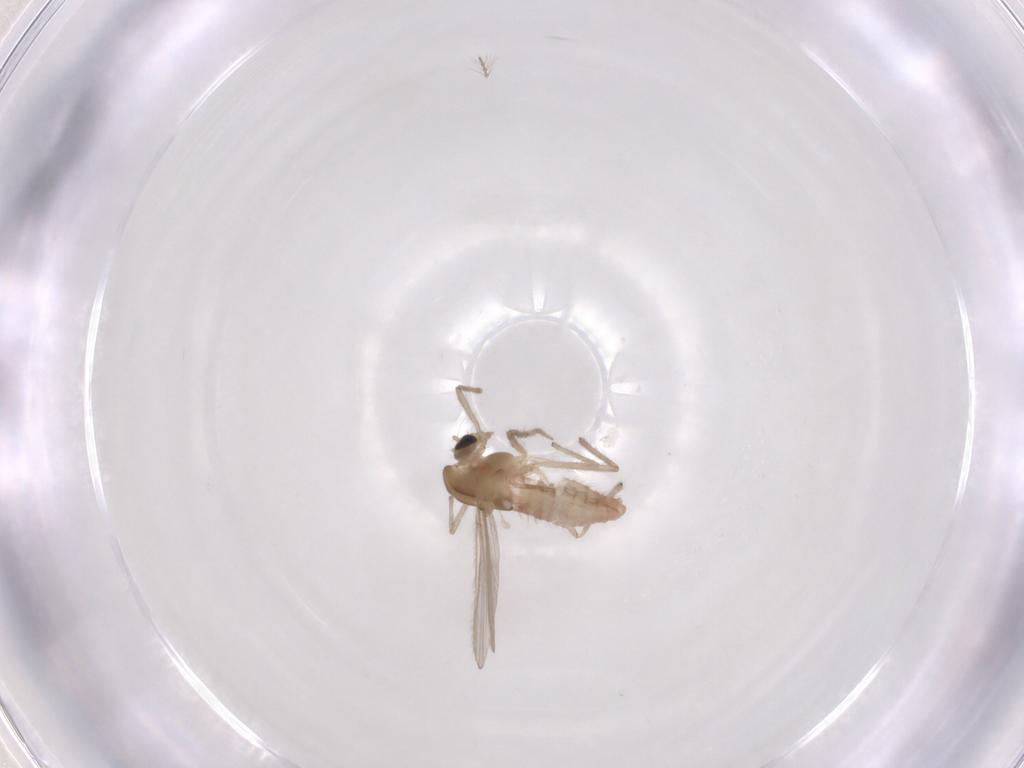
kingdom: Animalia
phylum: Arthropoda
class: Insecta
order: Diptera
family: Chironomidae
